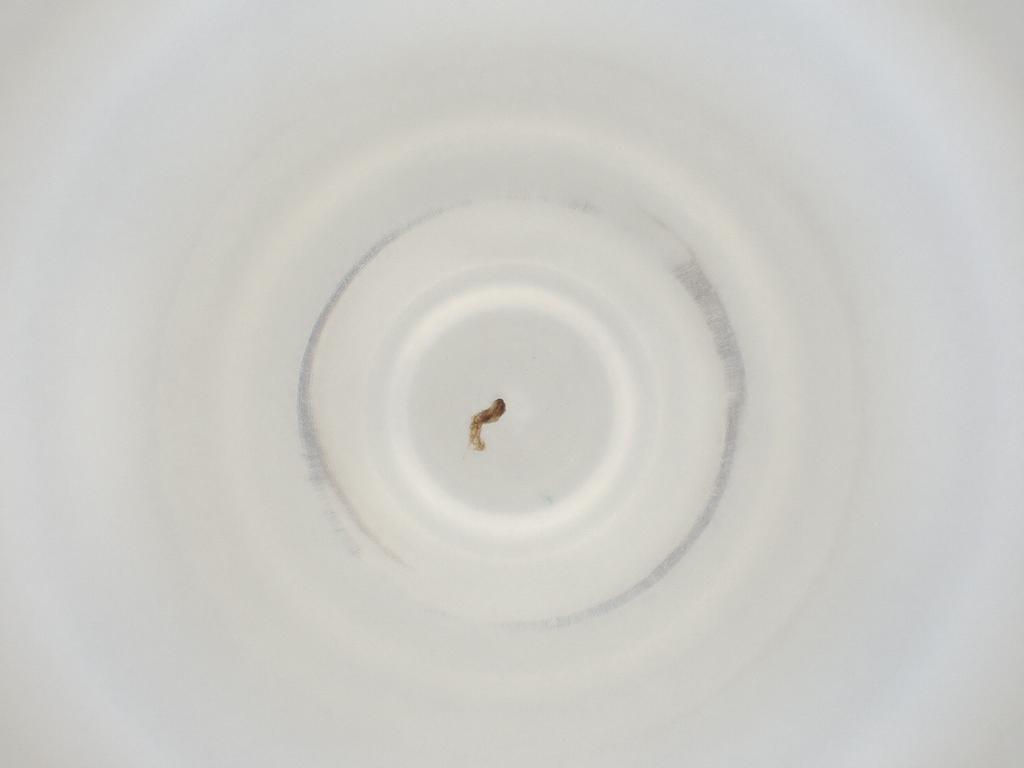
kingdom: Animalia
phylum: Arthropoda
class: Insecta
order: Diptera
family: Cecidomyiidae
